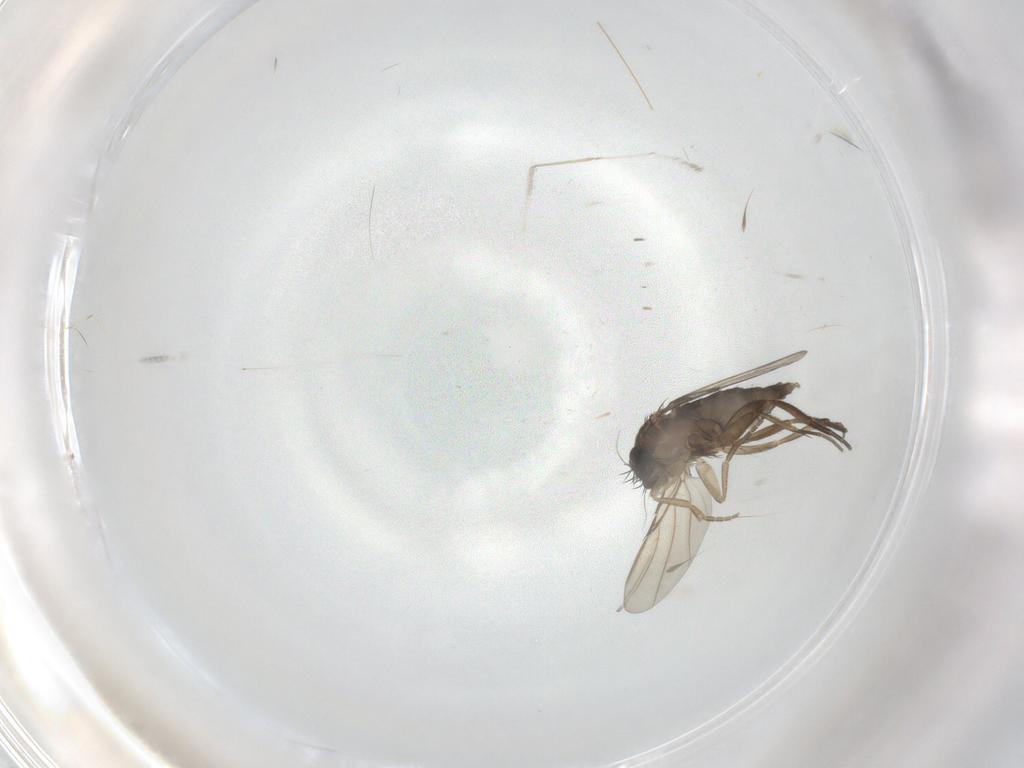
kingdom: Animalia
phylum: Arthropoda
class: Insecta
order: Diptera
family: Phoridae
